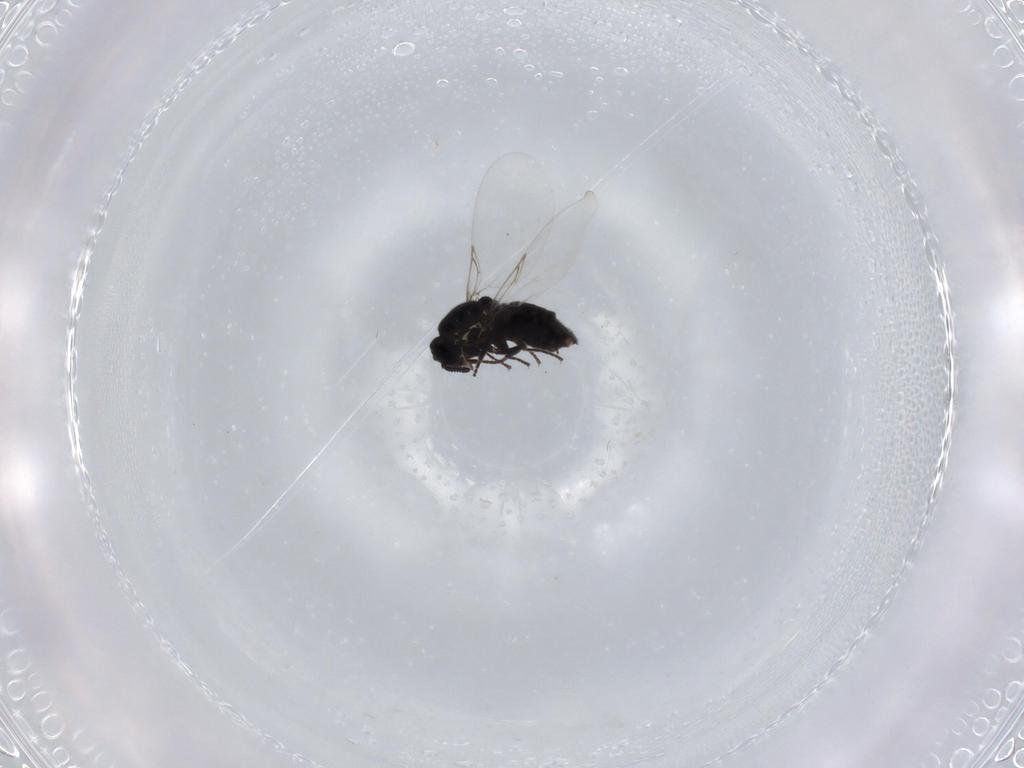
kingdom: Animalia
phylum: Arthropoda
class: Insecta
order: Diptera
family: Scatopsidae
